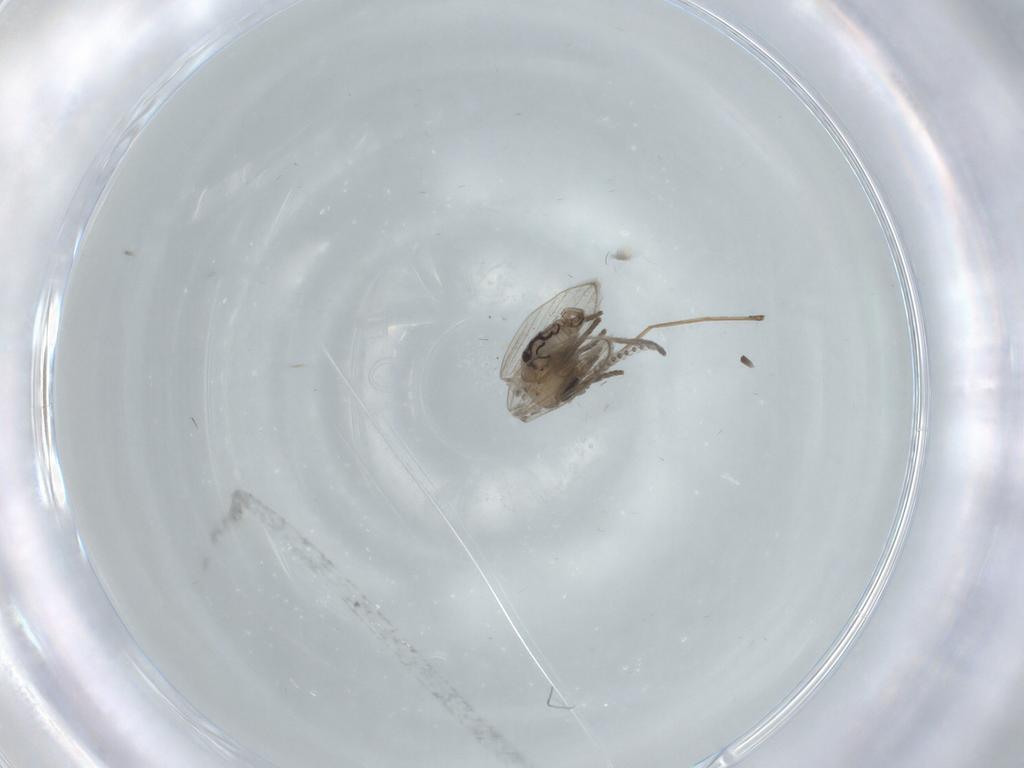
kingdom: Animalia
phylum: Arthropoda
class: Insecta
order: Diptera
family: Psychodidae
